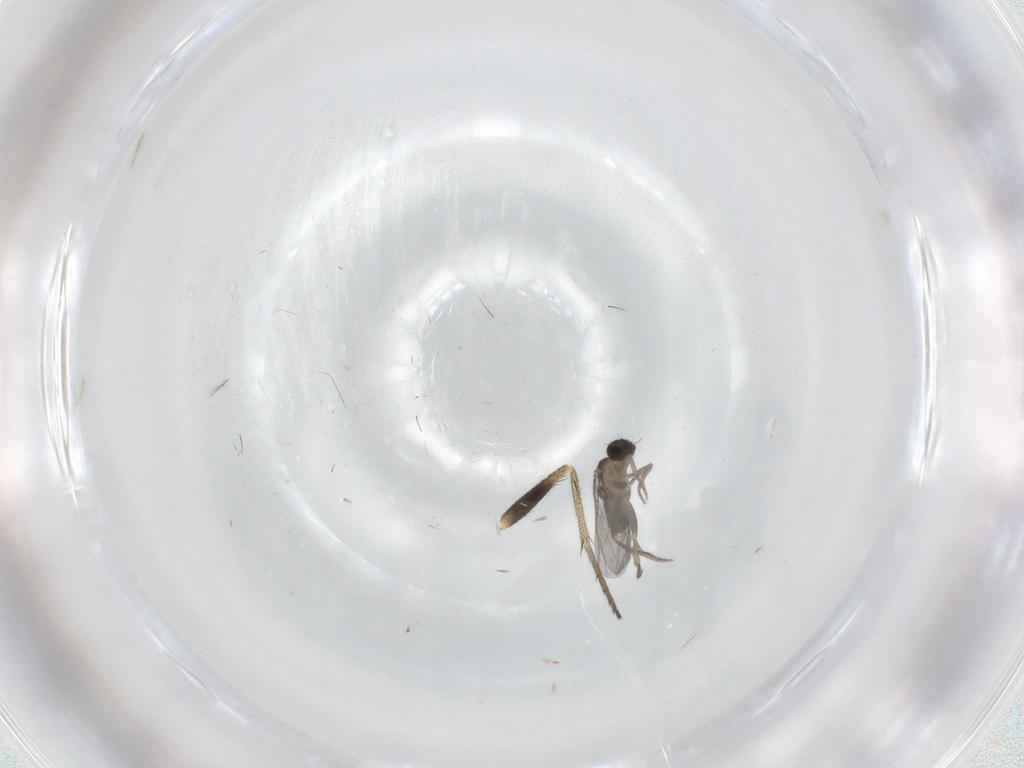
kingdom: Animalia
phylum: Arthropoda
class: Insecta
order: Diptera
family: Dolichopodidae
